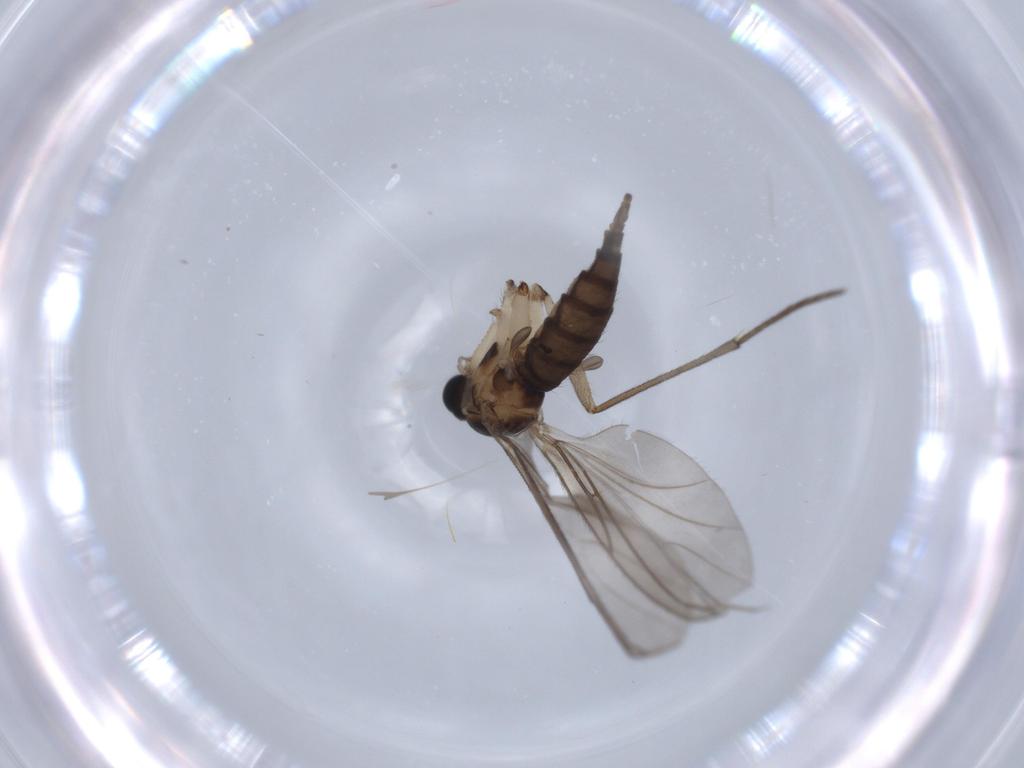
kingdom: Animalia
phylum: Arthropoda
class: Insecta
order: Diptera
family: Sciaridae
